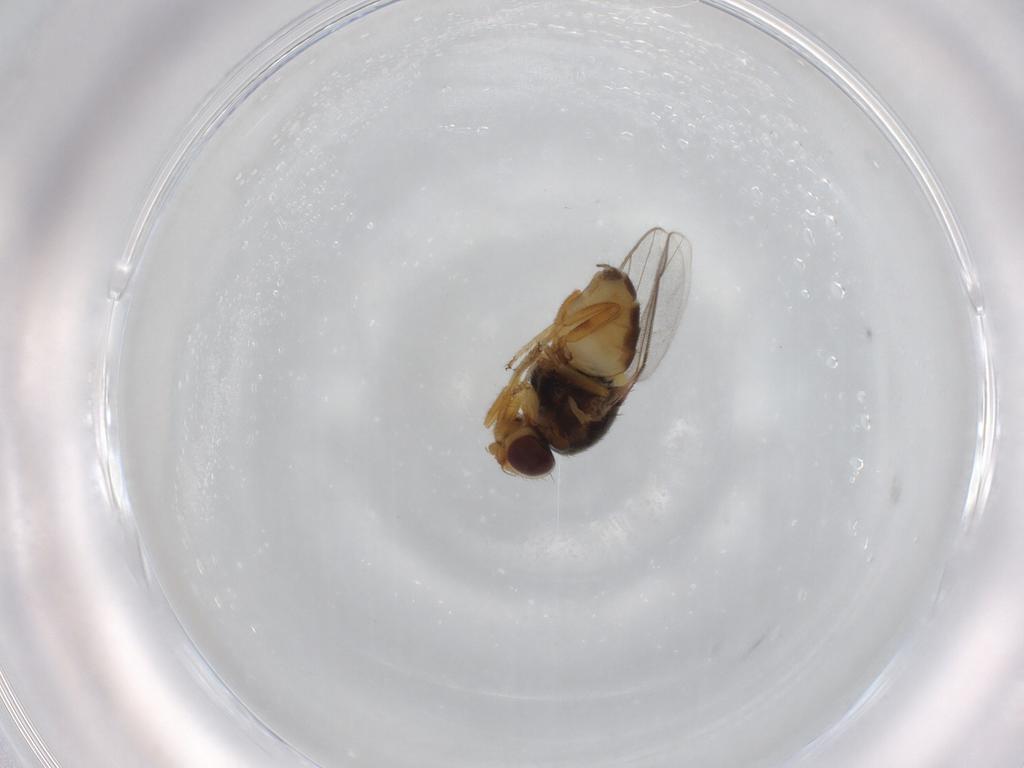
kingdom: Animalia
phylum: Arthropoda
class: Insecta
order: Diptera
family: Chloropidae
